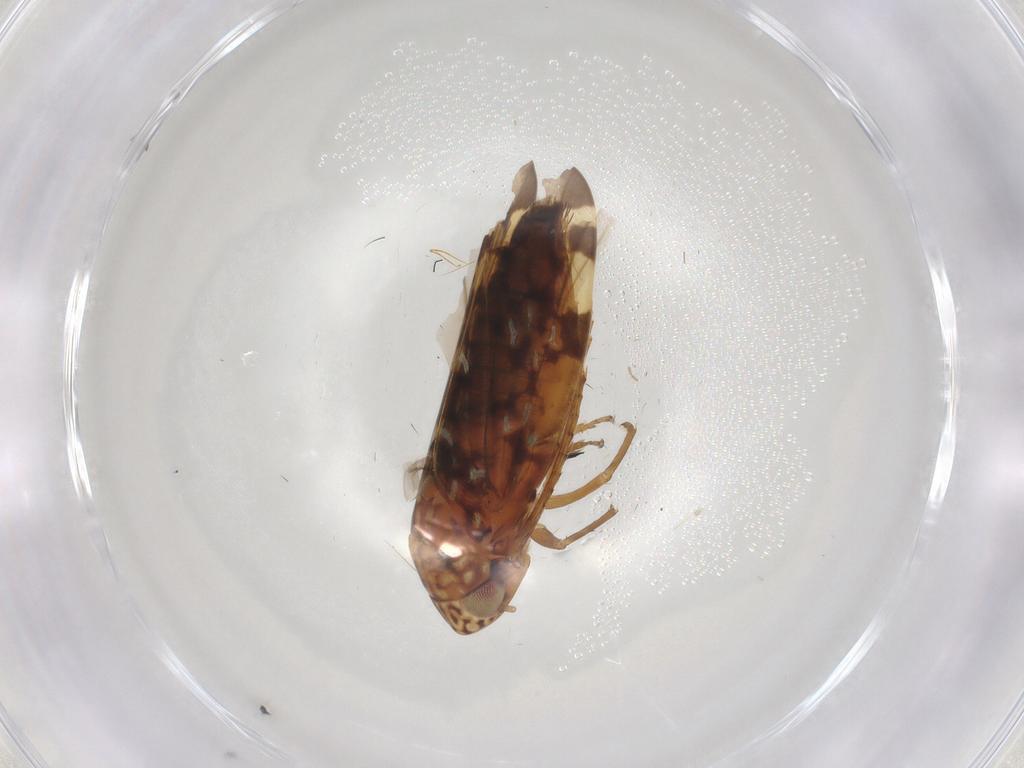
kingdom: Animalia
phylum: Arthropoda
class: Insecta
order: Hemiptera
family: Cicadellidae
